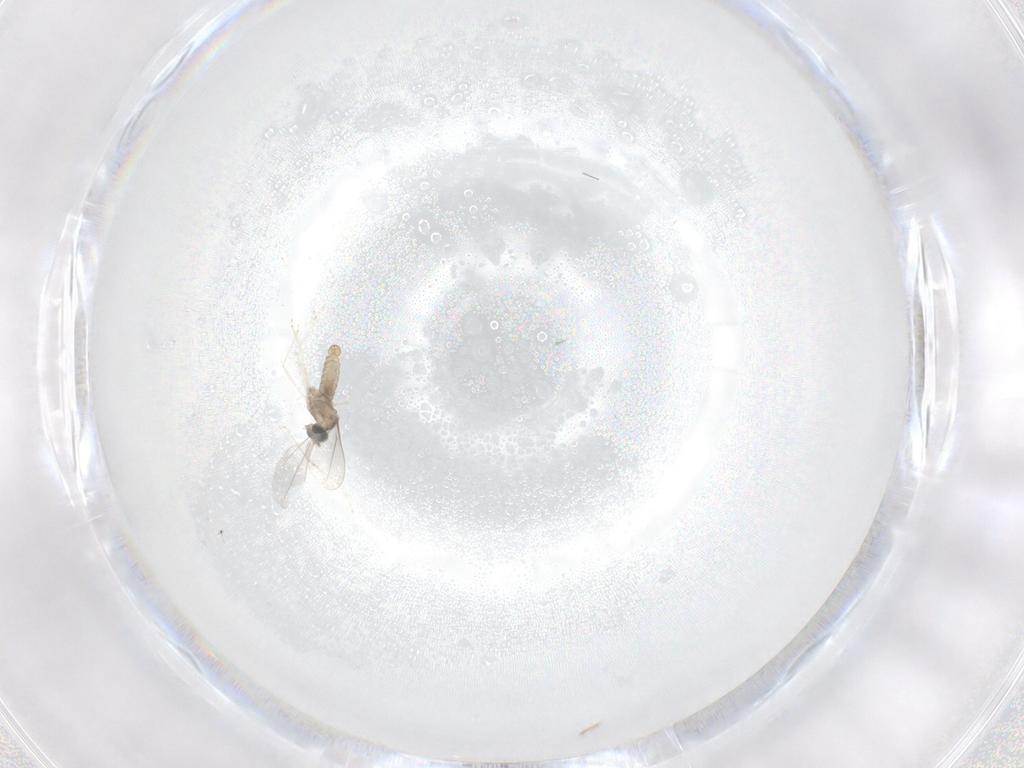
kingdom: Animalia
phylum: Arthropoda
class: Insecta
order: Diptera
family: Cecidomyiidae
